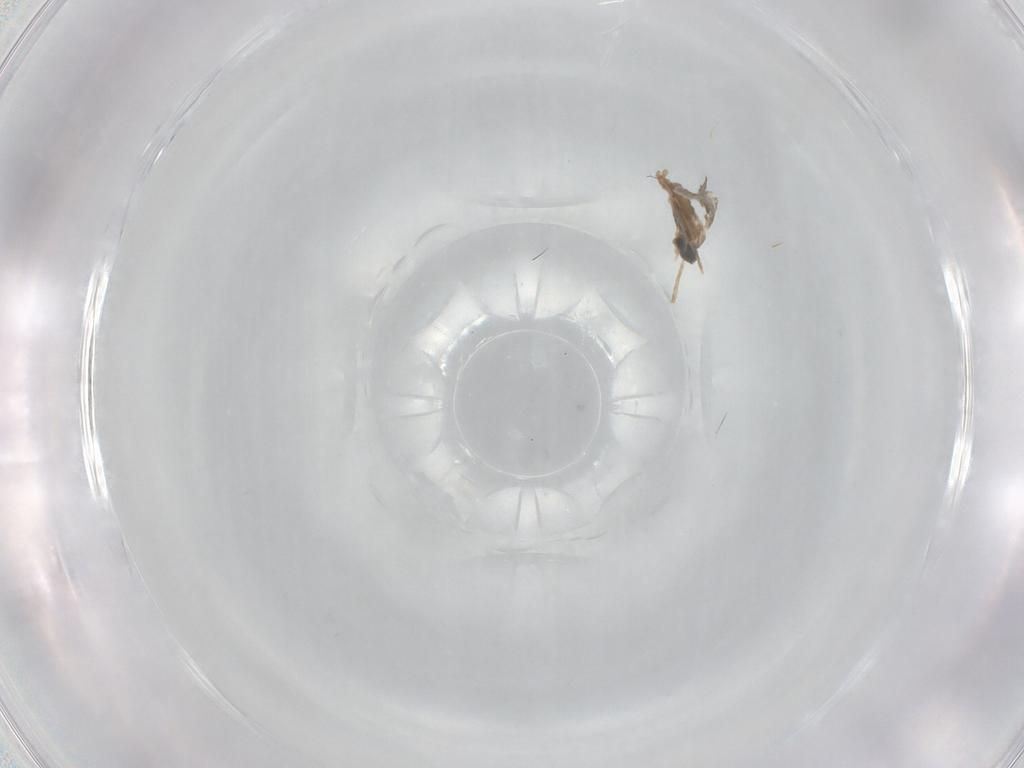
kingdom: Animalia
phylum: Arthropoda
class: Insecta
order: Diptera
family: Cecidomyiidae
